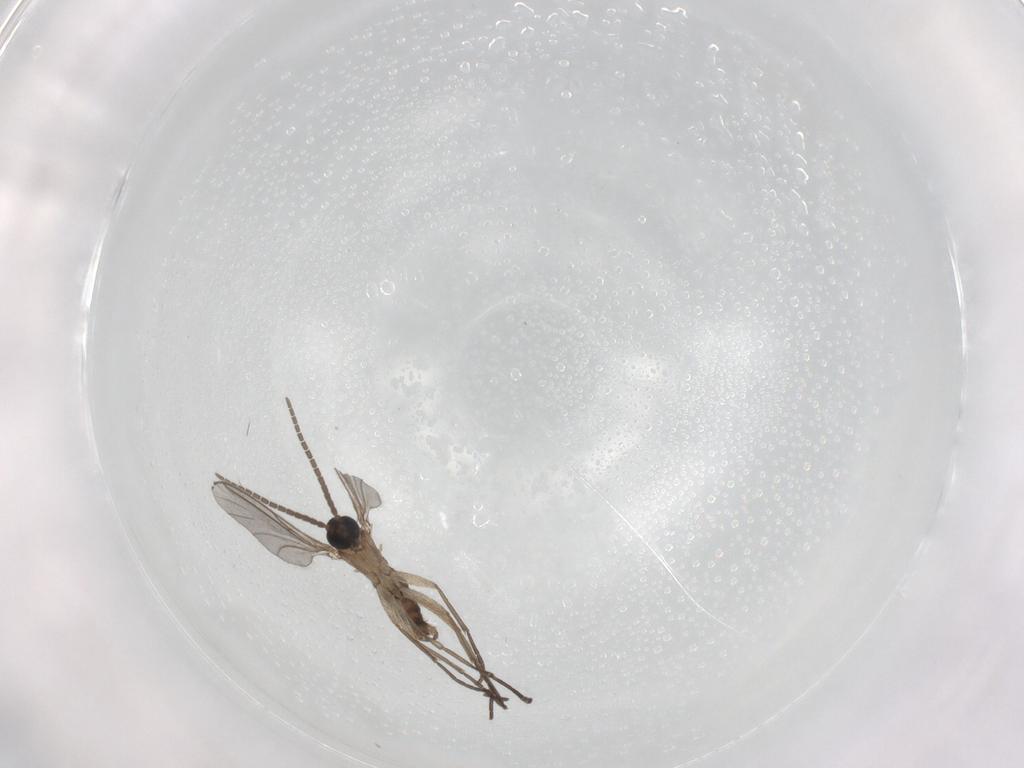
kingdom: Animalia
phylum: Arthropoda
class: Insecta
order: Diptera
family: Sciaridae
